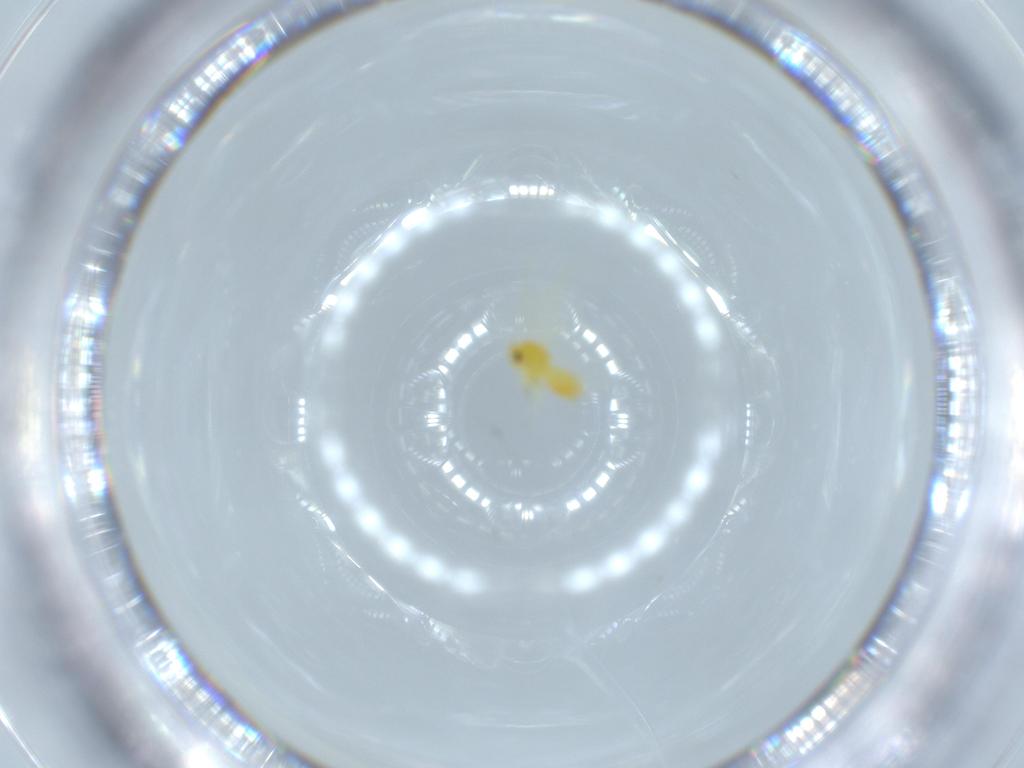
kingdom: Animalia
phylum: Arthropoda
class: Insecta
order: Hemiptera
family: Aleyrodidae
